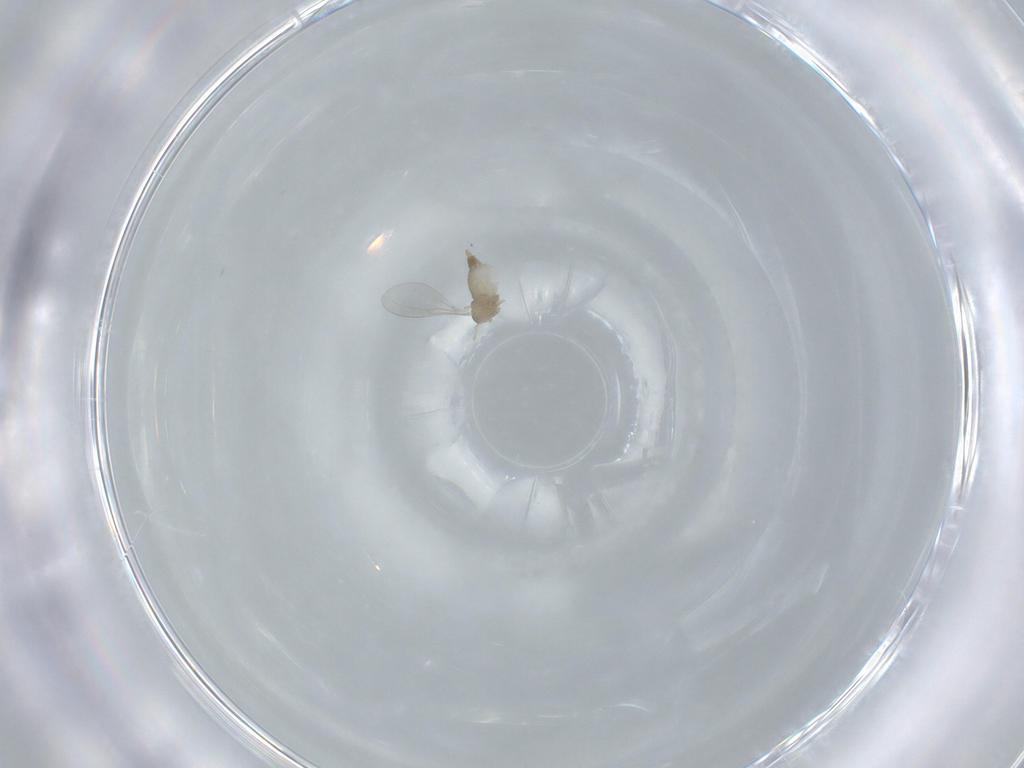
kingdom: Animalia
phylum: Arthropoda
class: Insecta
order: Diptera
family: Cecidomyiidae
